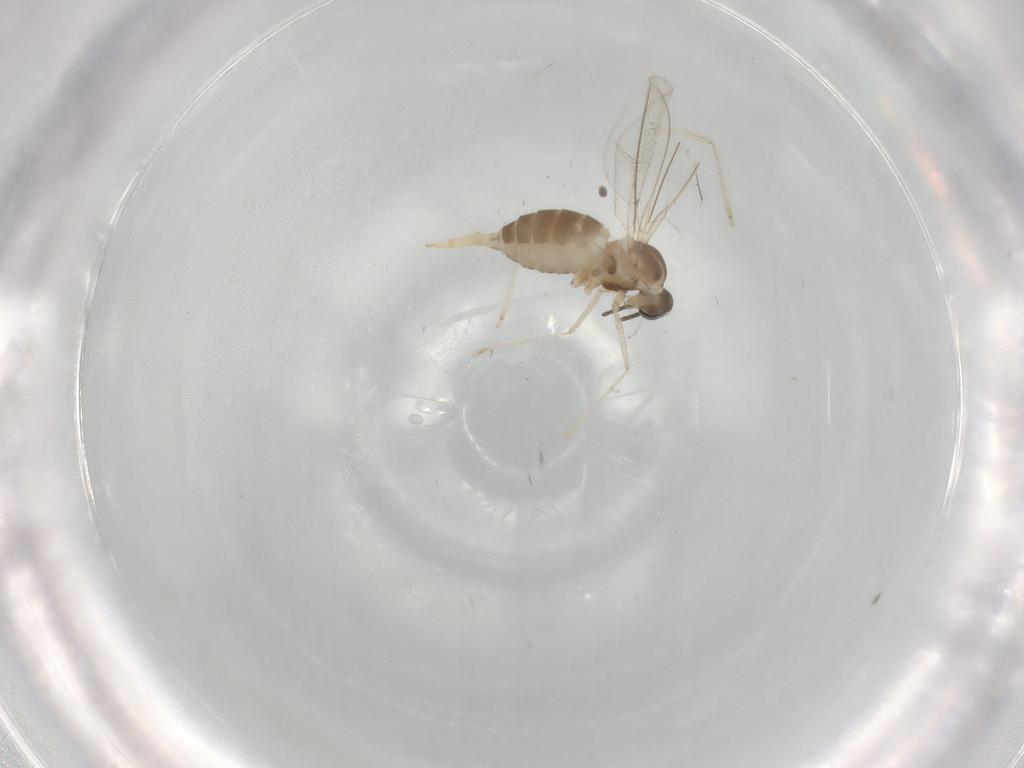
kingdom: Animalia
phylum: Arthropoda
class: Insecta
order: Diptera
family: Cecidomyiidae
